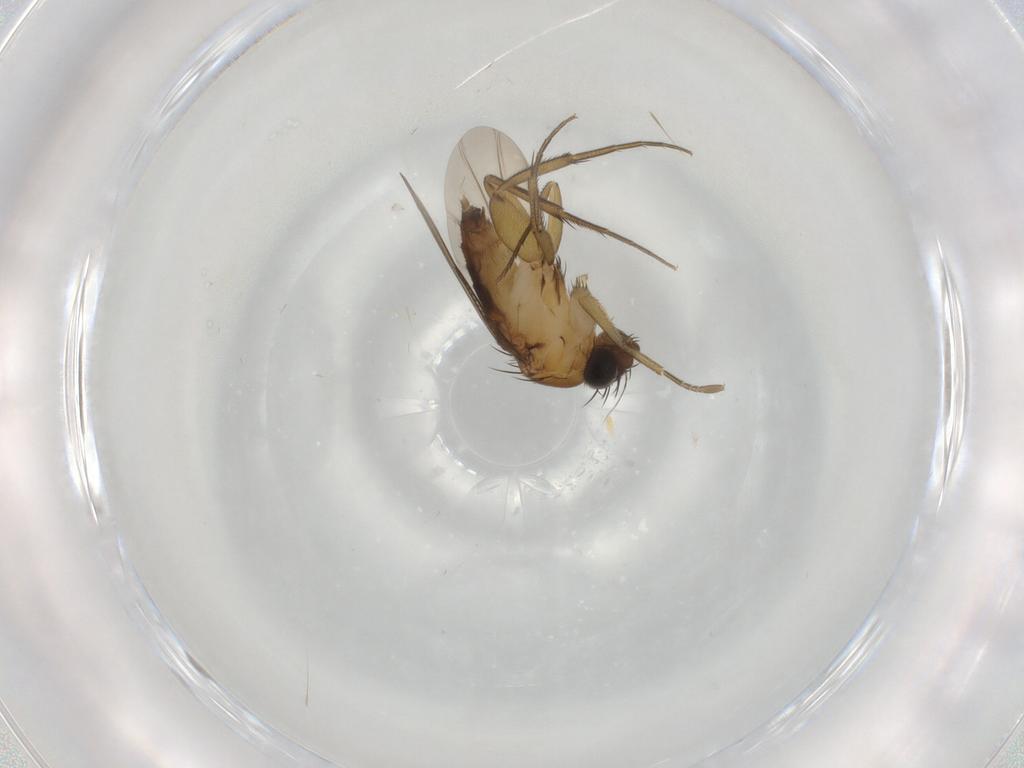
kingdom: Animalia
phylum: Arthropoda
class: Insecta
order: Diptera
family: Phoridae
